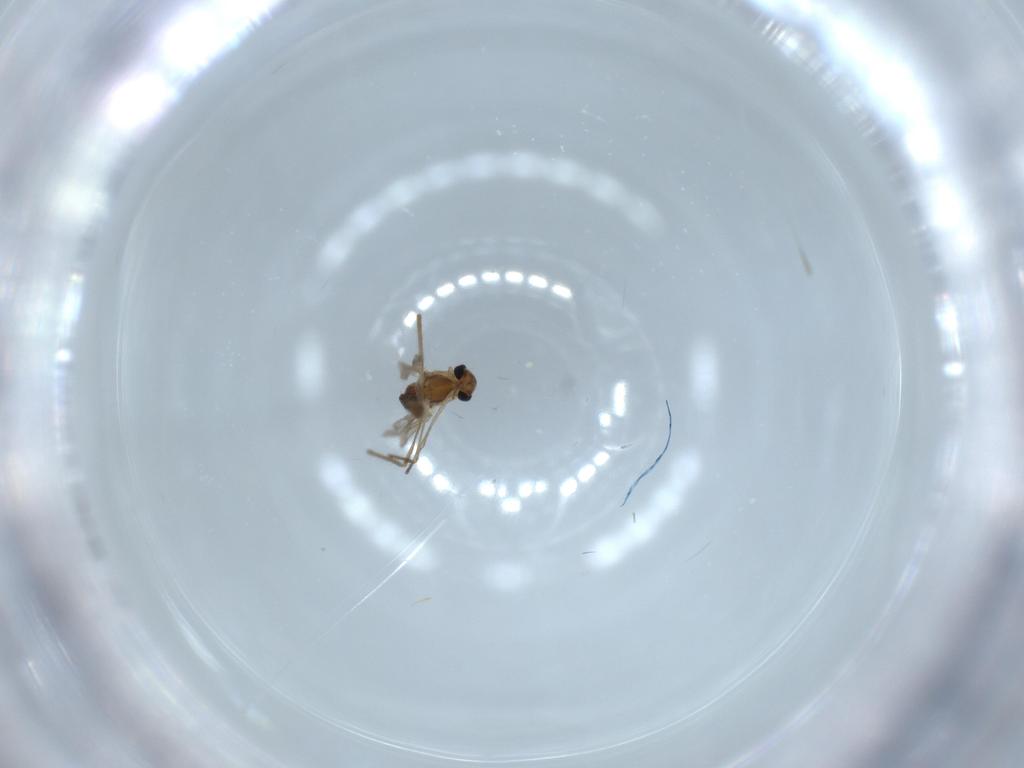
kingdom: Animalia
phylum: Arthropoda
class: Insecta
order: Diptera
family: Chironomidae
